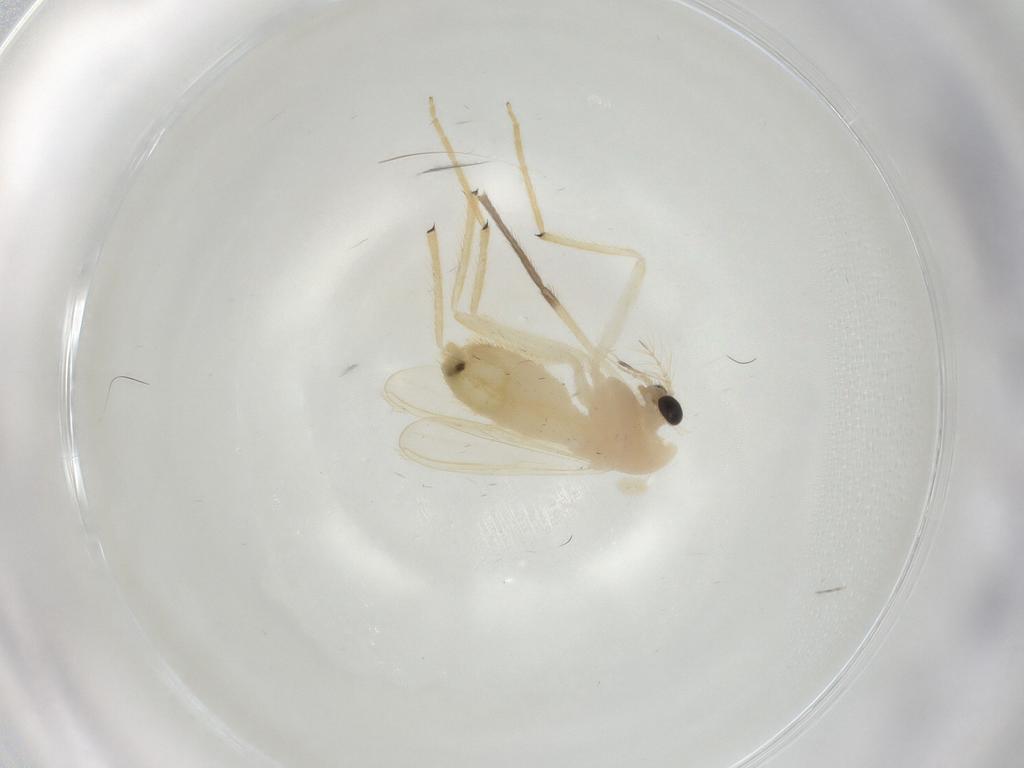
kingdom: Animalia
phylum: Arthropoda
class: Insecta
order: Diptera
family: Chironomidae
